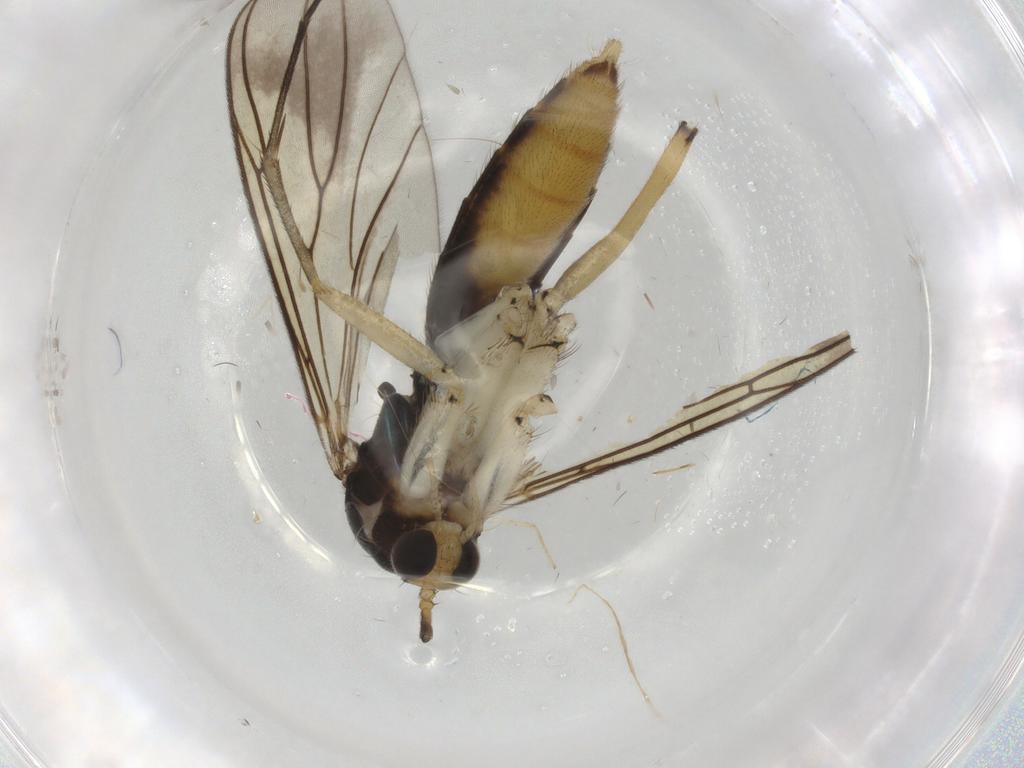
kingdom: Animalia
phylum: Arthropoda
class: Insecta
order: Diptera
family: Mycetophilidae
